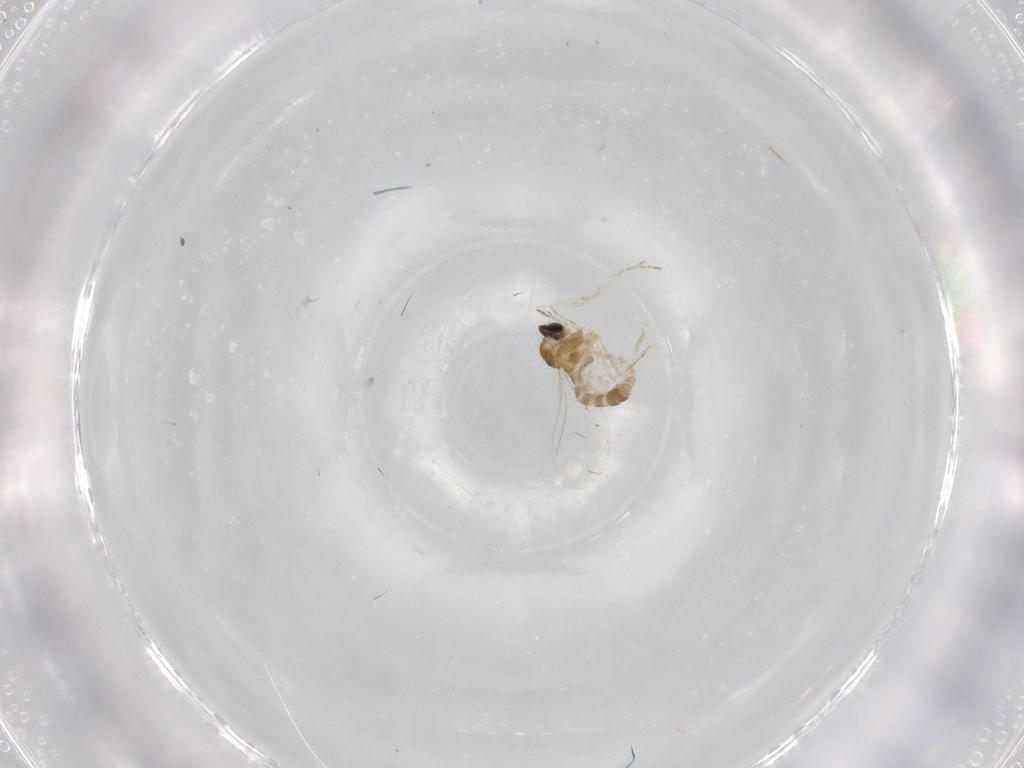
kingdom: Animalia
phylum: Arthropoda
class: Insecta
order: Diptera
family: Cecidomyiidae
